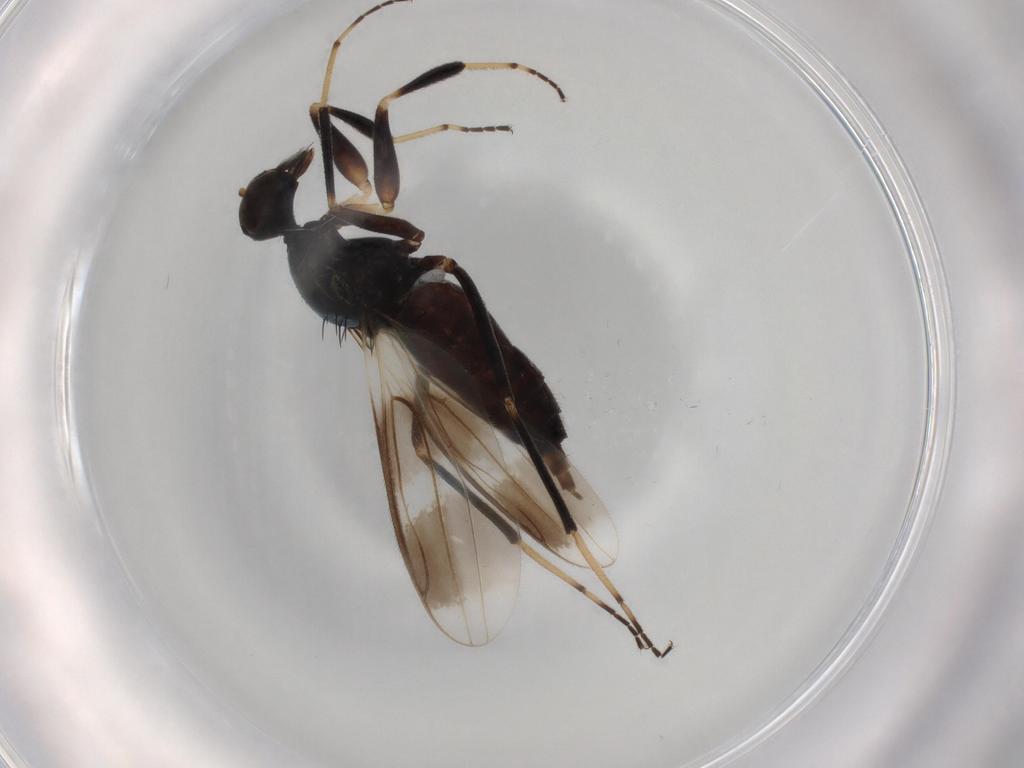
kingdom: Animalia
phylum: Arthropoda
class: Insecta
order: Diptera
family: Hybotidae
